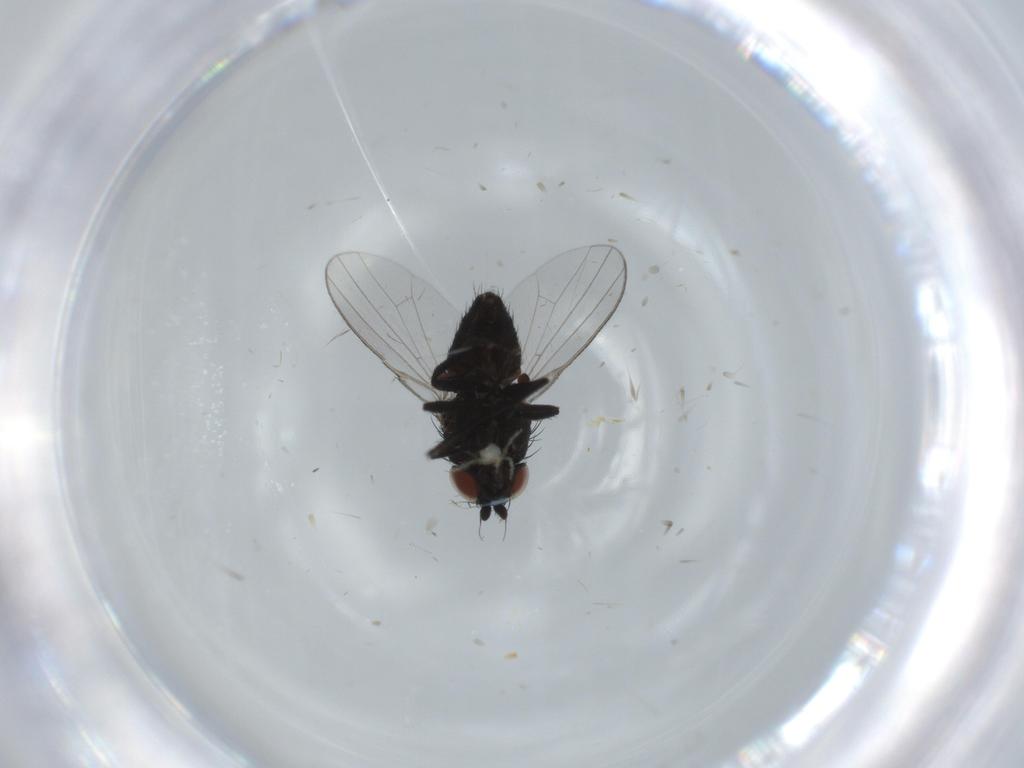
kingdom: Animalia
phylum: Arthropoda
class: Insecta
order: Diptera
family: Milichiidae
